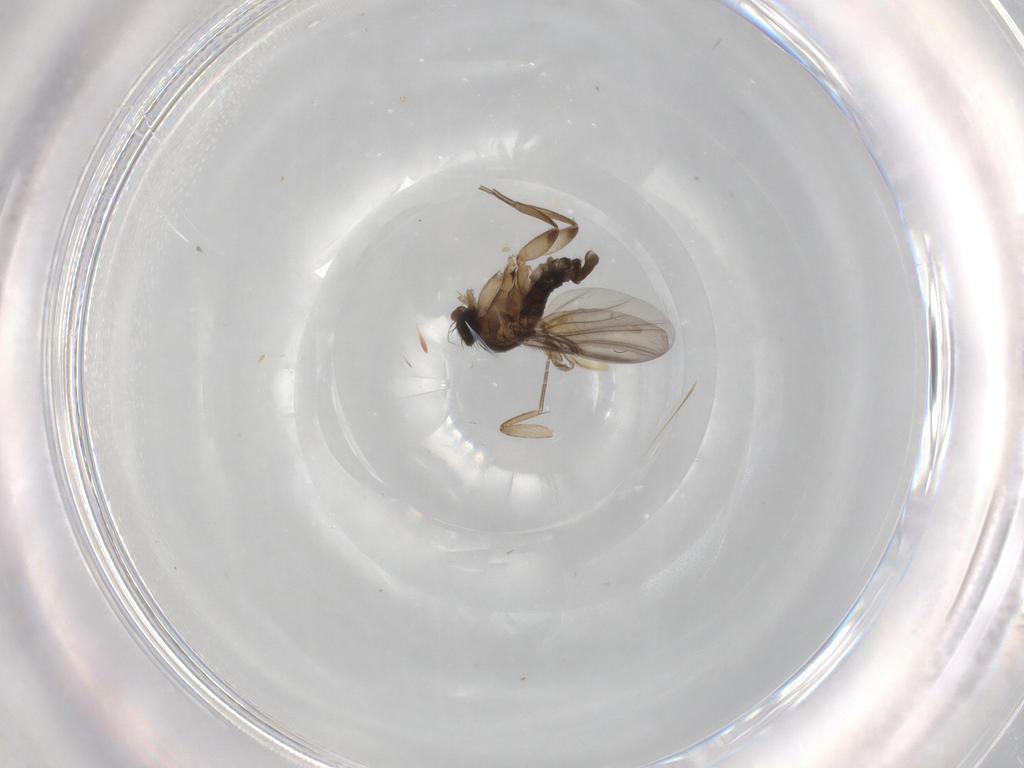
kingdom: Animalia
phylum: Arthropoda
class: Insecta
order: Diptera
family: Phoridae
